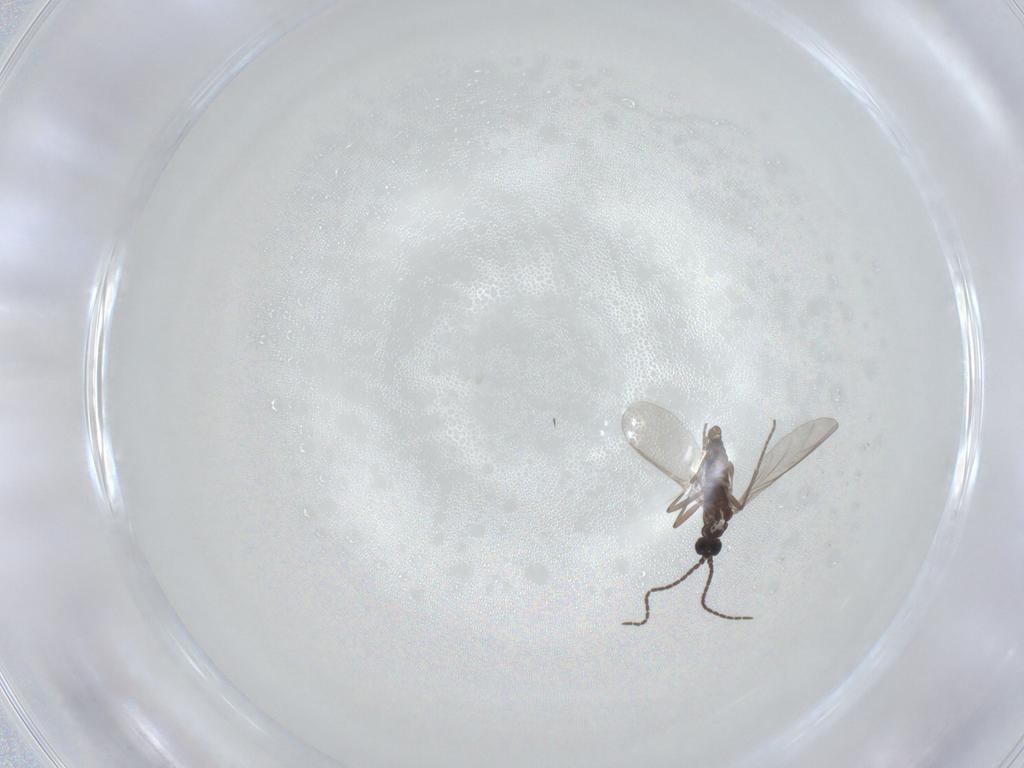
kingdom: Animalia
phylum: Arthropoda
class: Insecta
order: Diptera
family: Sciaridae
